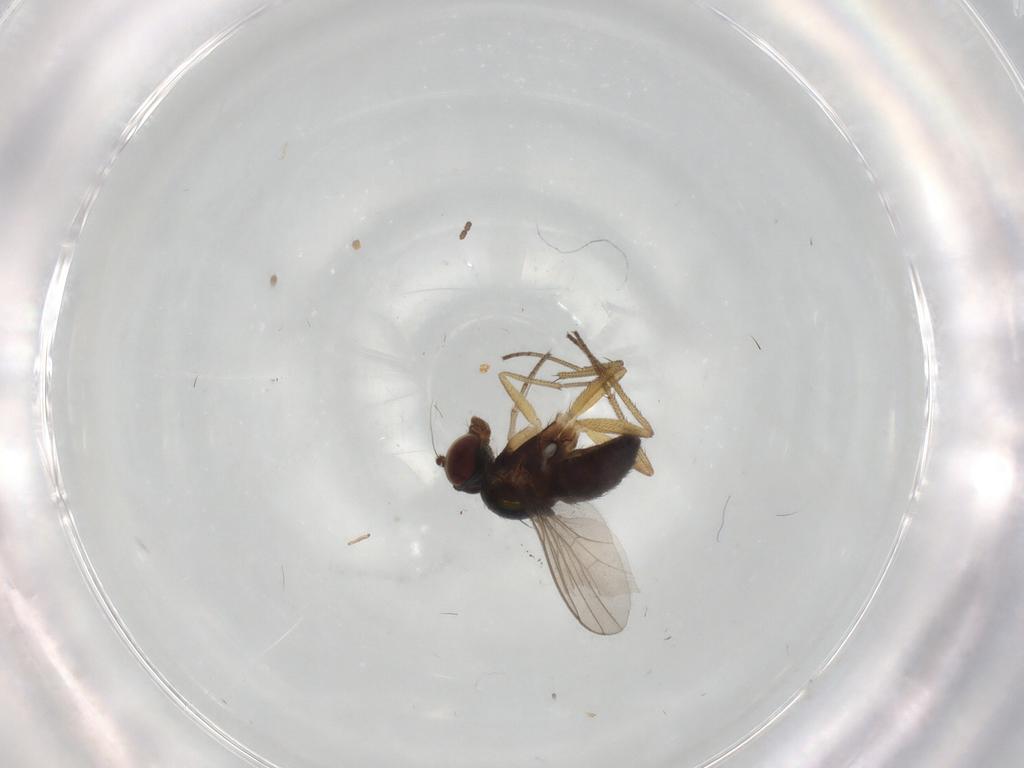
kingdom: Animalia
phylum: Arthropoda
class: Insecta
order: Diptera
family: Dolichopodidae
